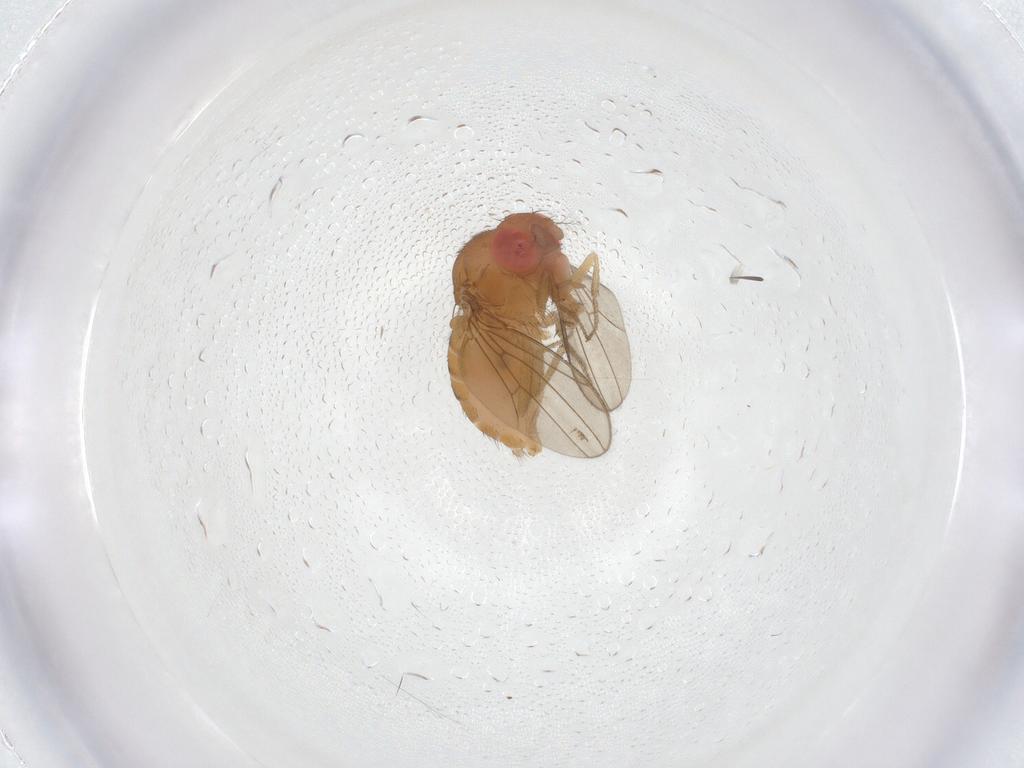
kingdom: Animalia
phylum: Arthropoda
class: Insecta
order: Diptera
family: Drosophilidae
